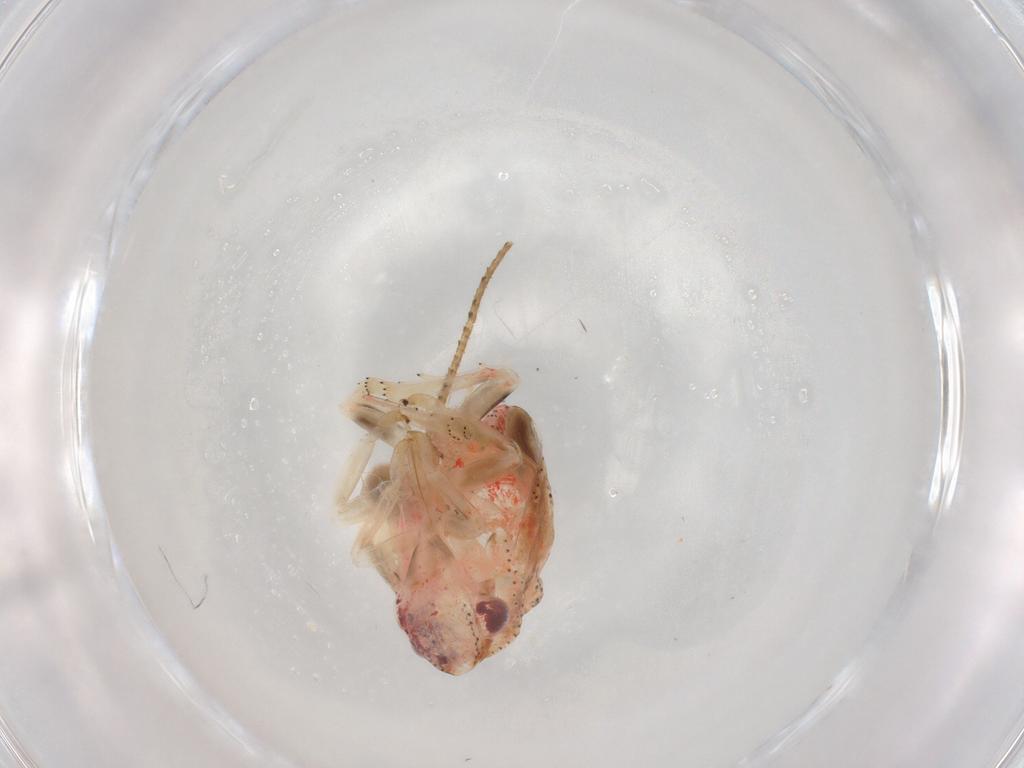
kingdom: Animalia
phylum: Arthropoda
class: Insecta
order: Hemiptera
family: Flatidae
